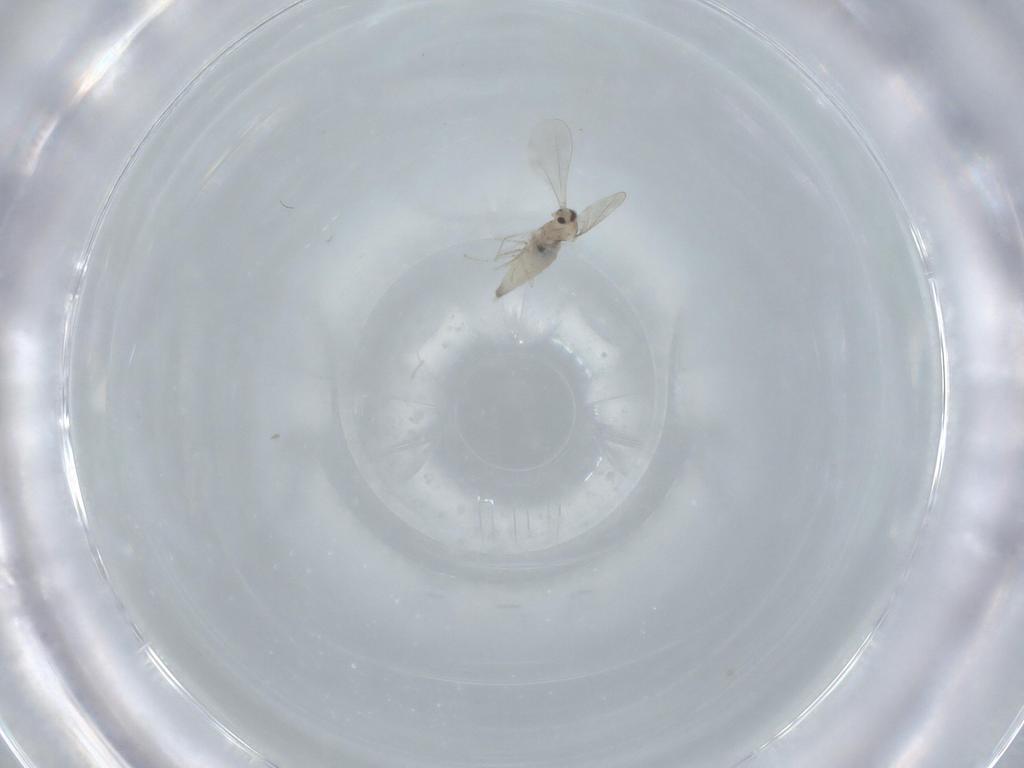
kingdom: Animalia
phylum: Arthropoda
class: Insecta
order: Diptera
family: Cecidomyiidae
